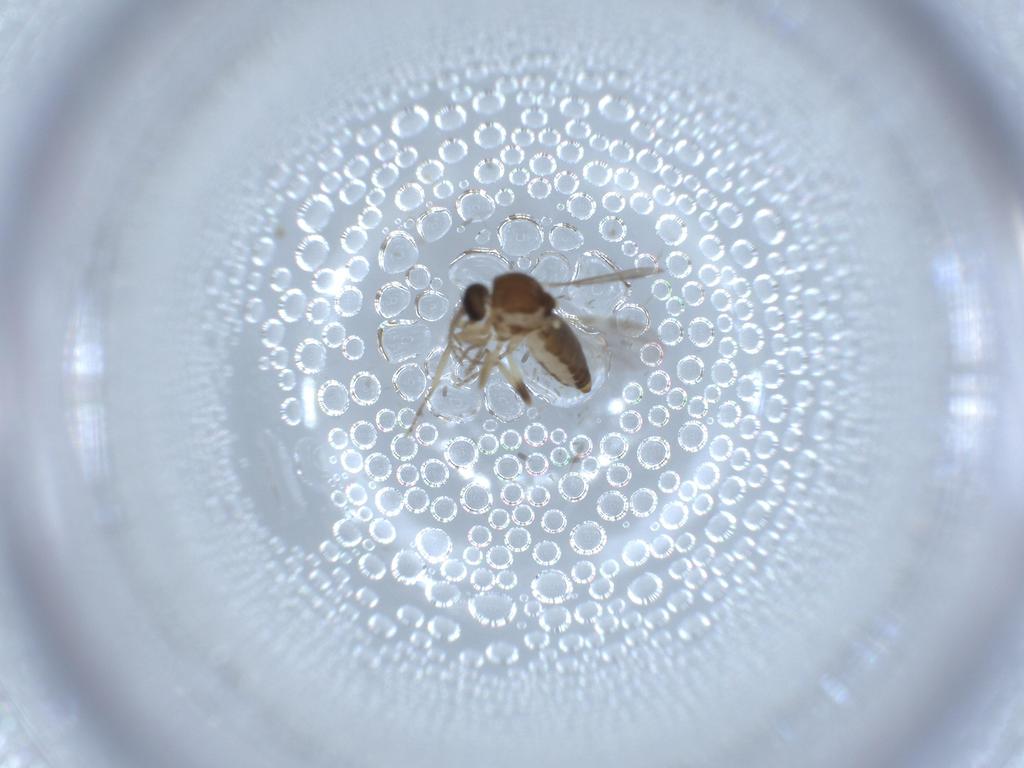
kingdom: Animalia
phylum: Arthropoda
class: Insecta
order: Diptera
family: Ceratopogonidae
